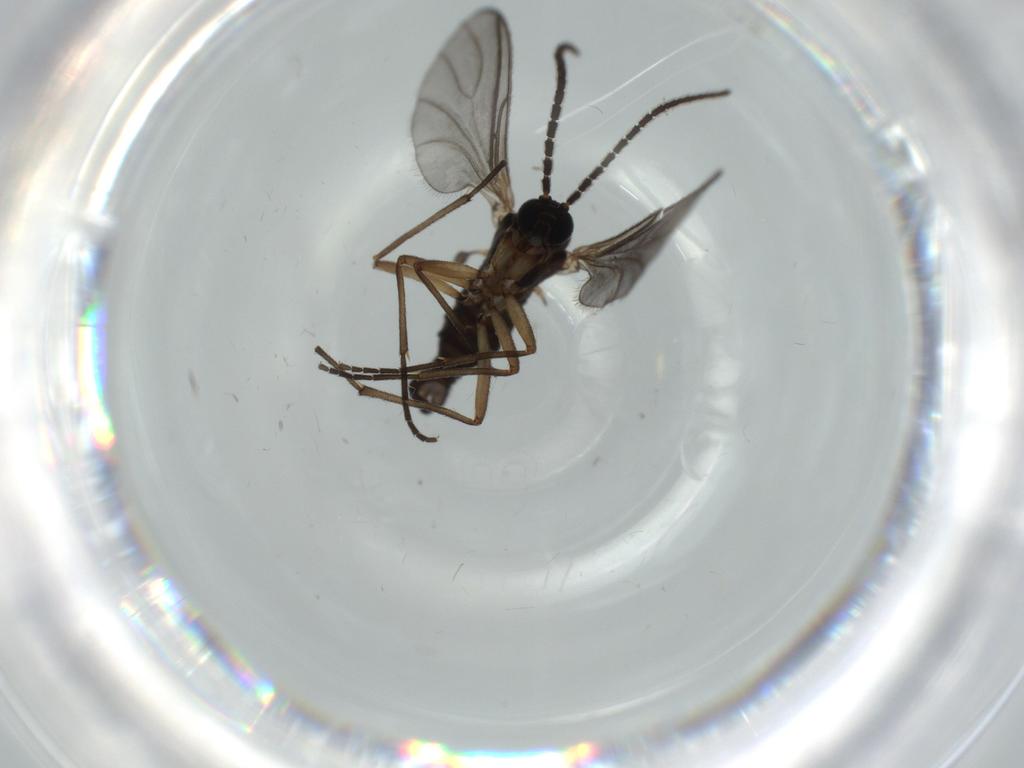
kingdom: Animalia
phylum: Arthropoda
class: Insecta
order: Diptera
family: Sciaridae
